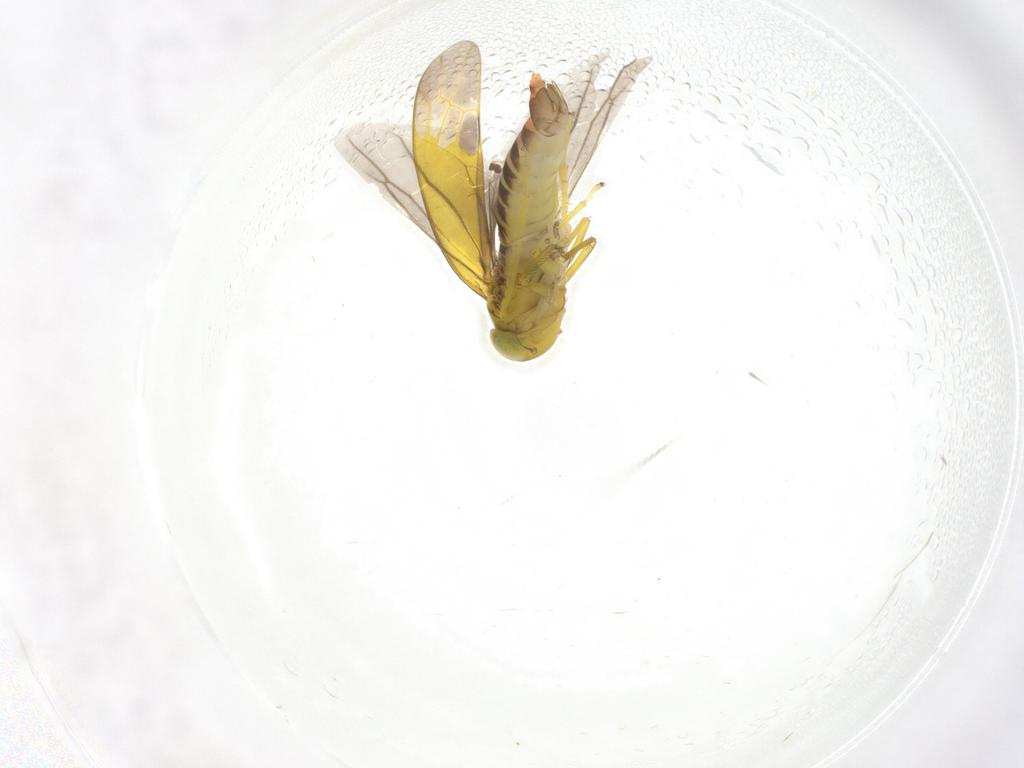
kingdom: Animalia
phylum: Arthropoda
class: Insecta
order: Hemiptera
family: Cicadellidae
